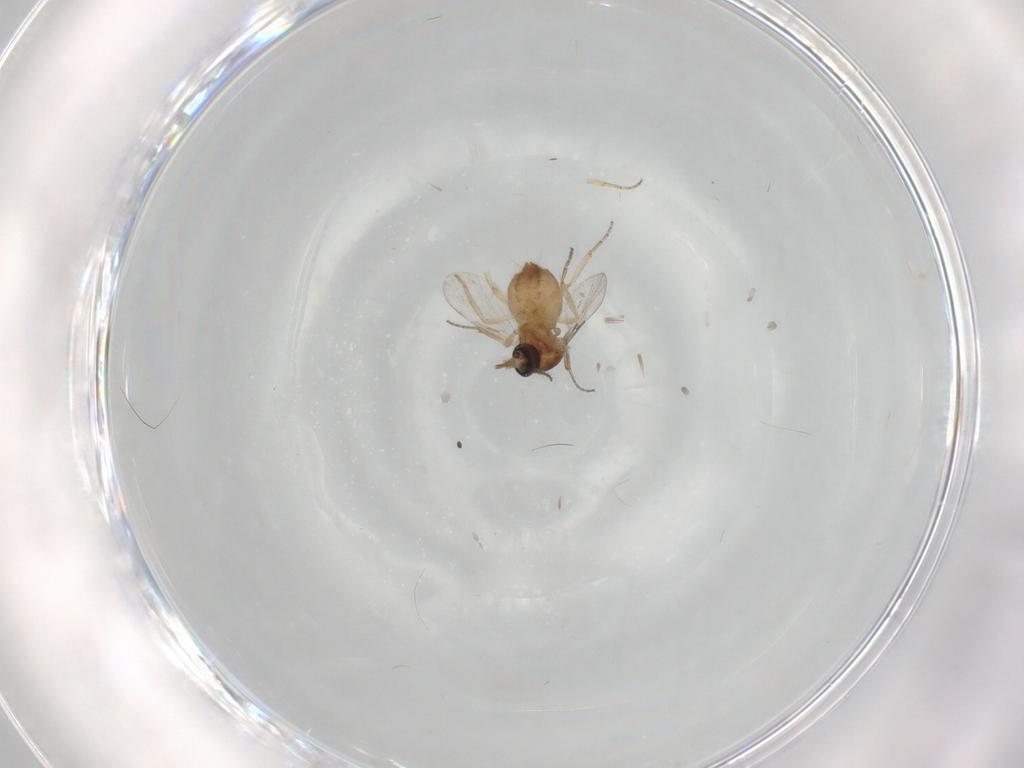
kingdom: Animalia
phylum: Arthropoda
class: Insecta
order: Diptera
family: Ceratopogonidae
